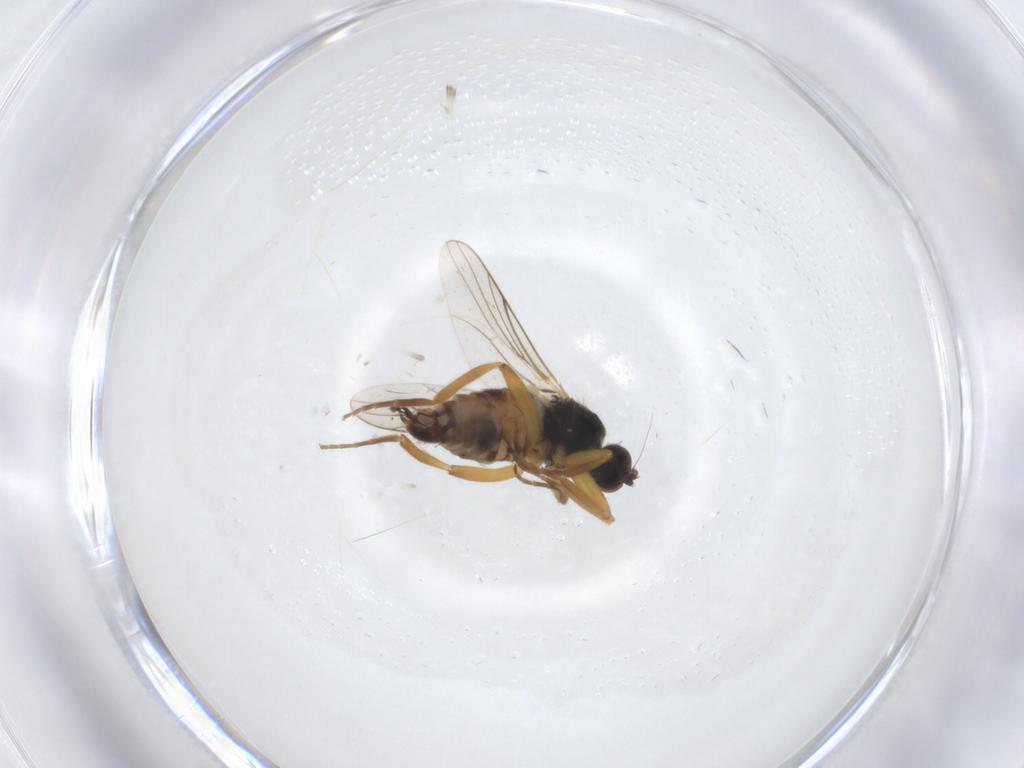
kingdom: Animalia
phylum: Arthropoda
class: Insecta
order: Diptera
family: Hybotidae
